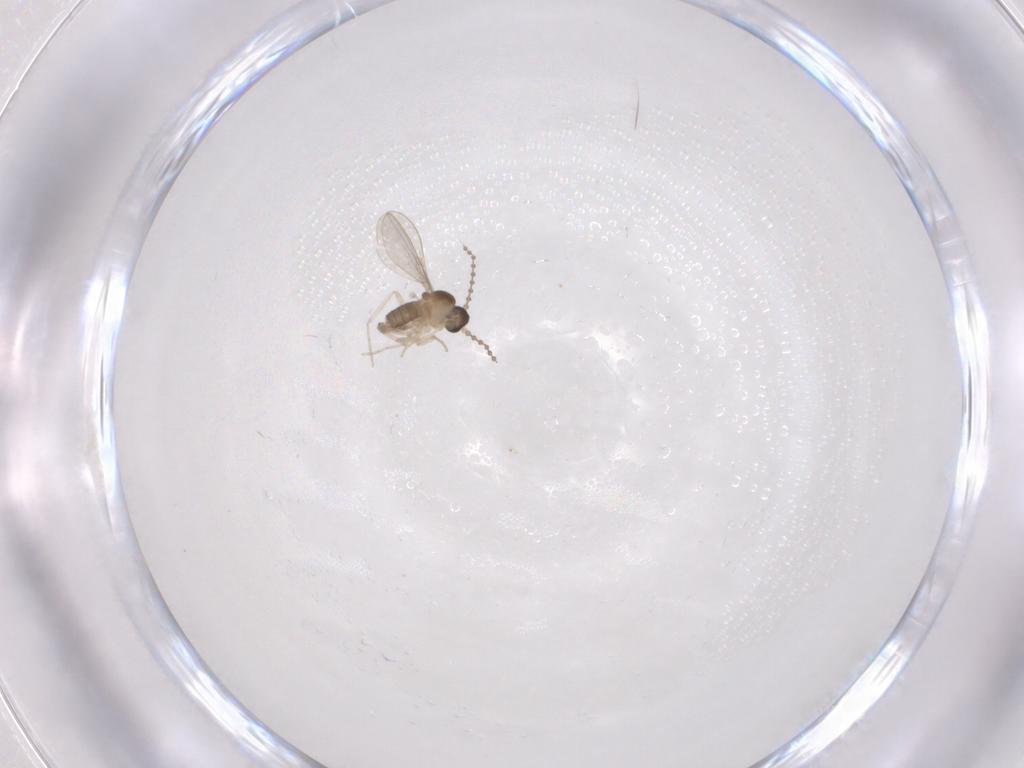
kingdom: Animalia
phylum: Arthropoda
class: Insecta
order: Diptera
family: Cecidomyiidae
